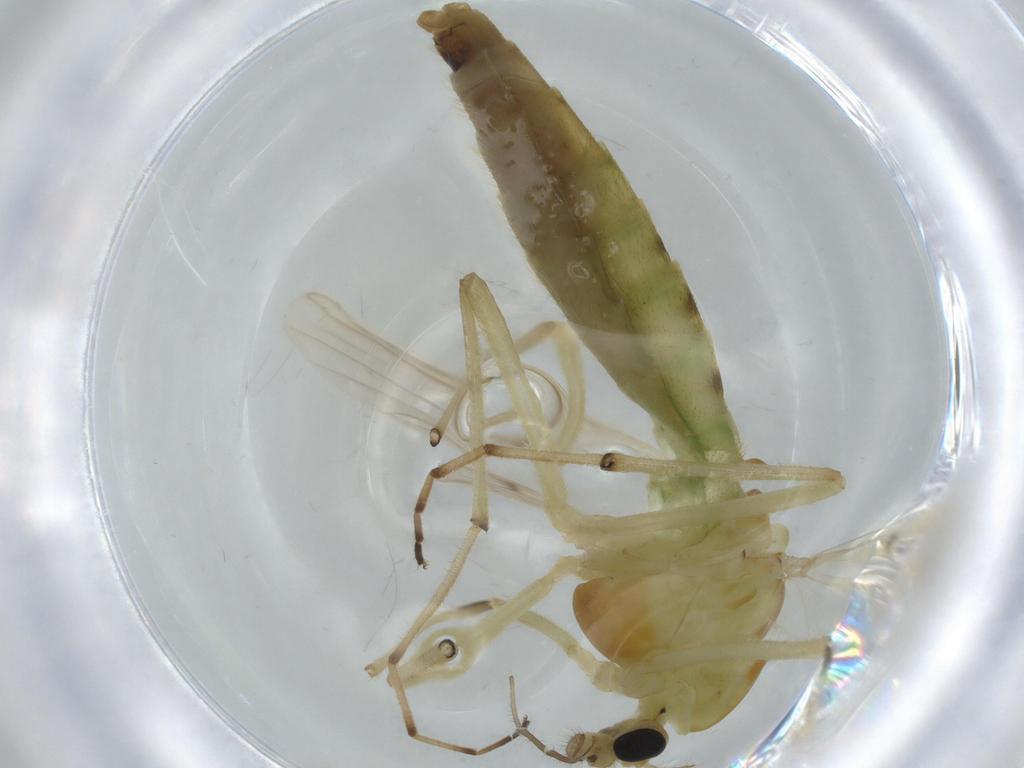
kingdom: Animalia
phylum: Arthropoda
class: Insecta
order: Diptera
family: Chironomidae
